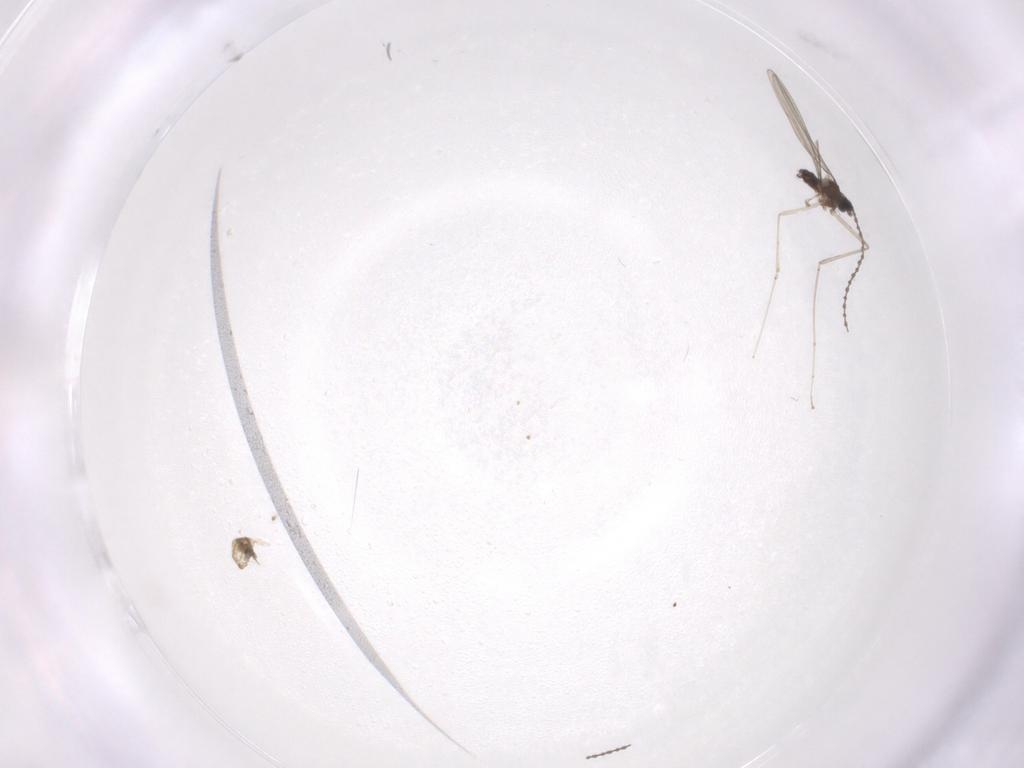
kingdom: Animalia
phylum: Arthropoda
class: Insecta
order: Diptera
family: Cecidomyiidae
